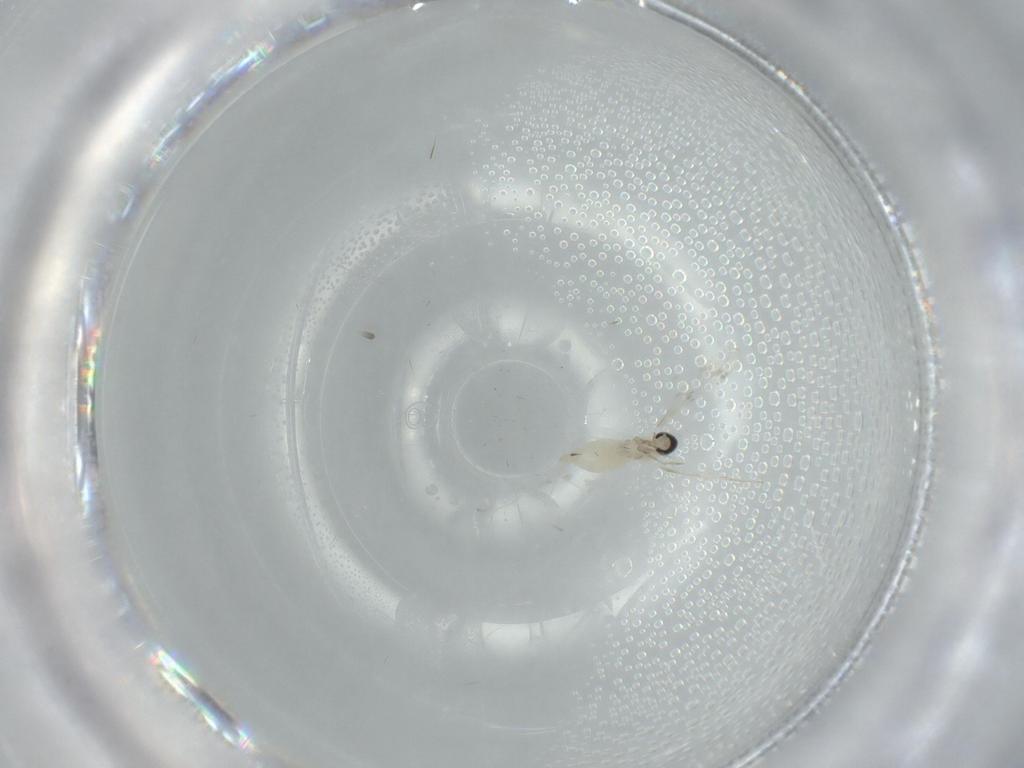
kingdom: Animalia
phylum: Arthropoda
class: Insecta
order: Diptera
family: Cecidomyiidae
